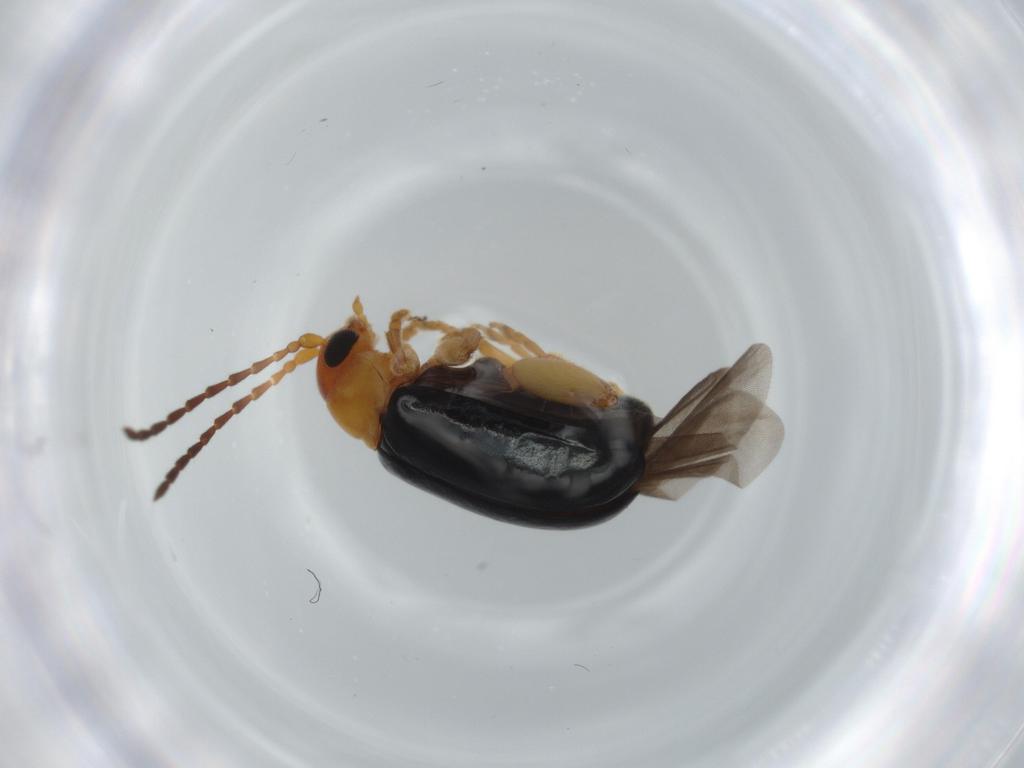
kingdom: Animalia
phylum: Arthropoda
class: Insecta
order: Coleoptera
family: Chrysomelidae
